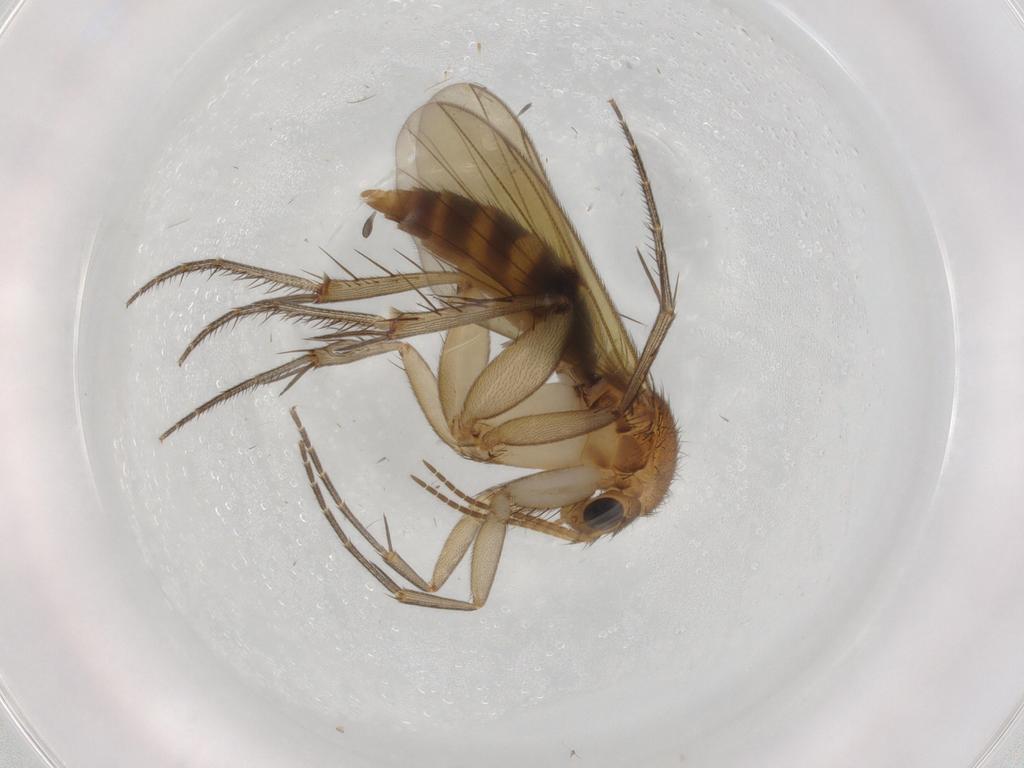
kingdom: Animalia
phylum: Arthropoda
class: Insecta
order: Diptera
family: Mycetophilidae
